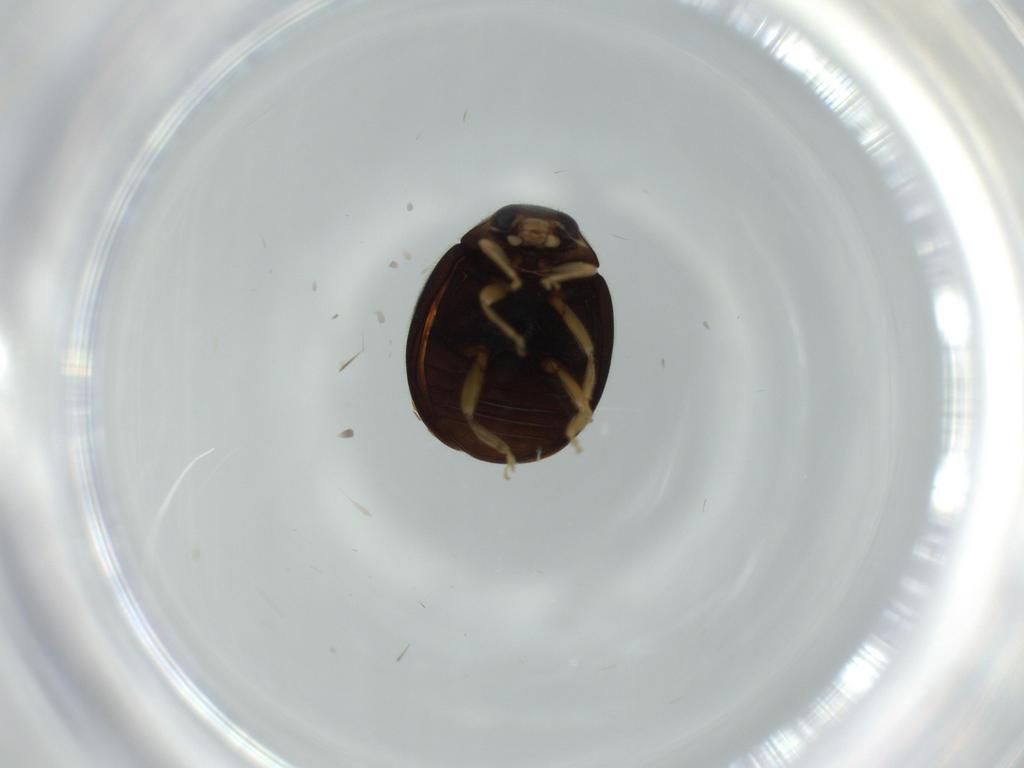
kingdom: Animalia
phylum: Arthropoda
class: Insecta
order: Coleoptera
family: Coccinellidae
